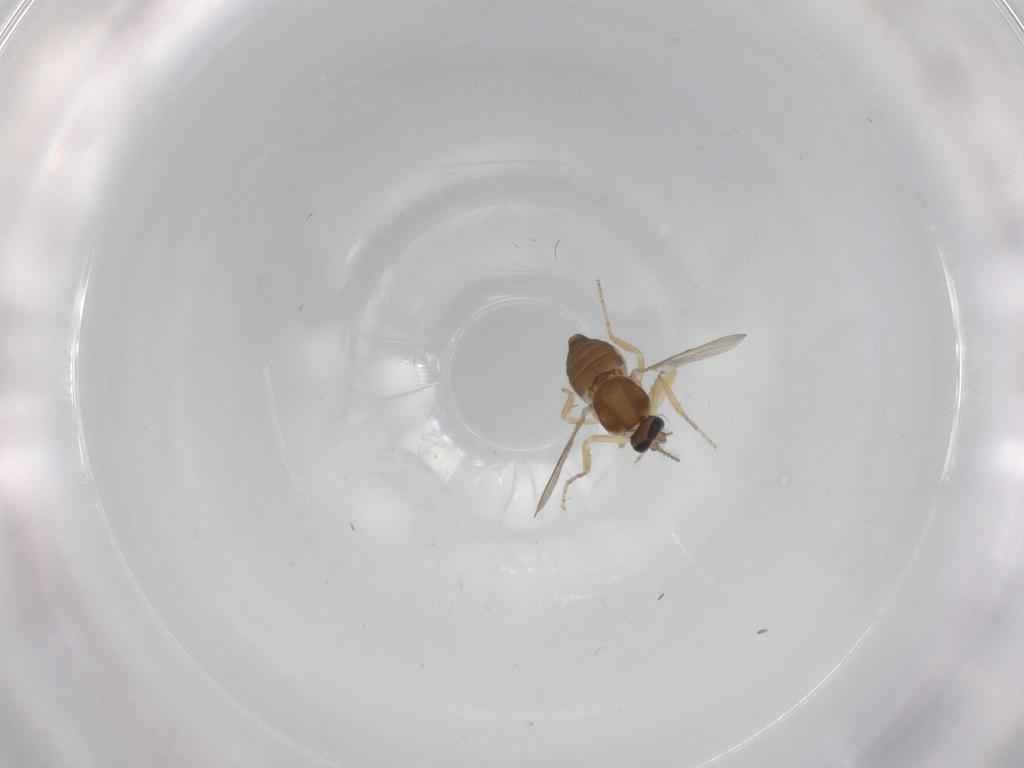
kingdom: Animalia
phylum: Arthropoda
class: Insecta
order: Diptera
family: Ceratopogonidae
